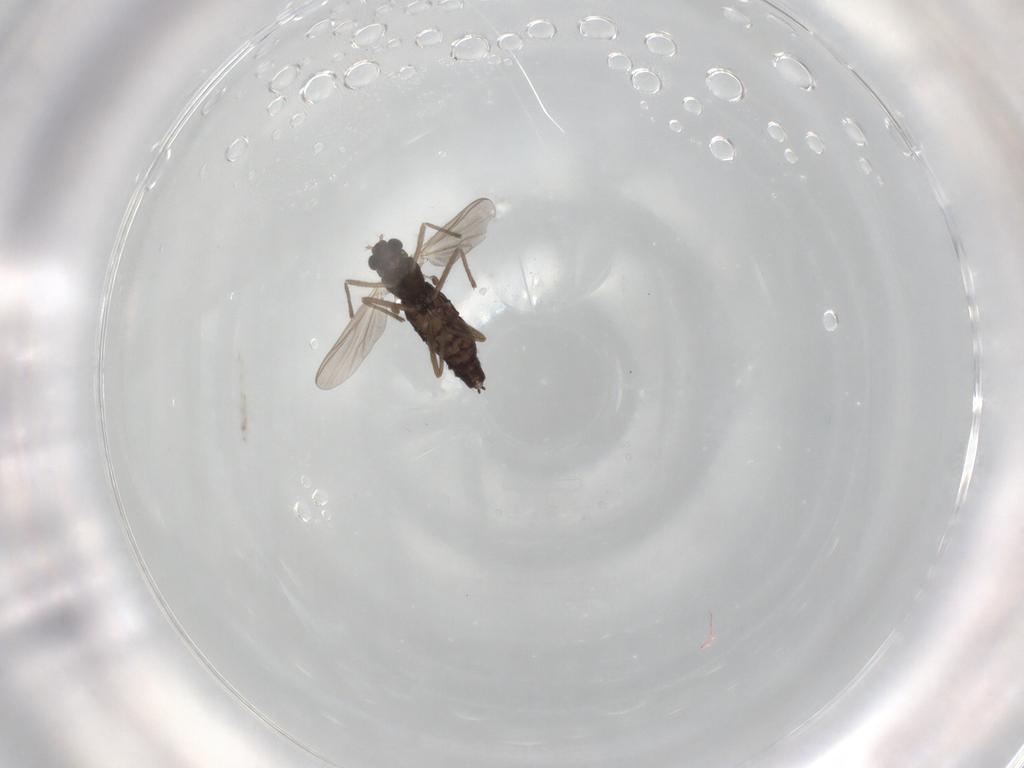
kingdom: Animalia
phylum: Arthropoda
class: Insecta
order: Diptera
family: Chironomidae
